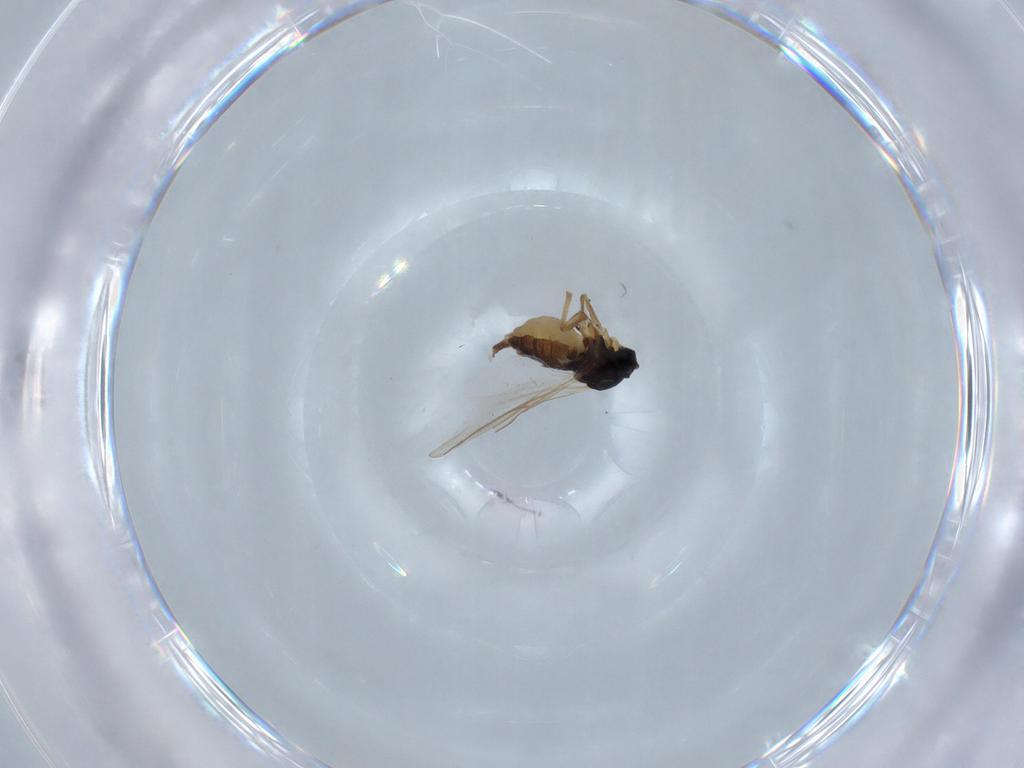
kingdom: Animalia
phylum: Arthropoda
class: Insecta
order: Diptera
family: Sciaridae
